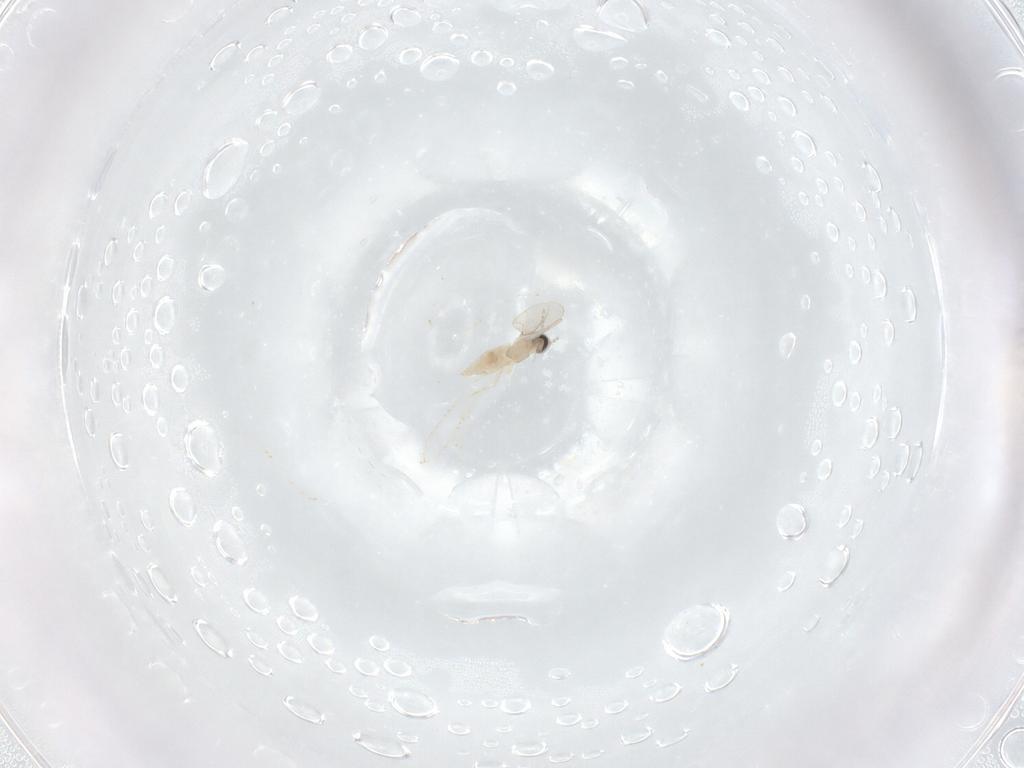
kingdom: Animalia
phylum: Arthropoda
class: Insecta
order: Diptera
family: Cecidomyiidae
